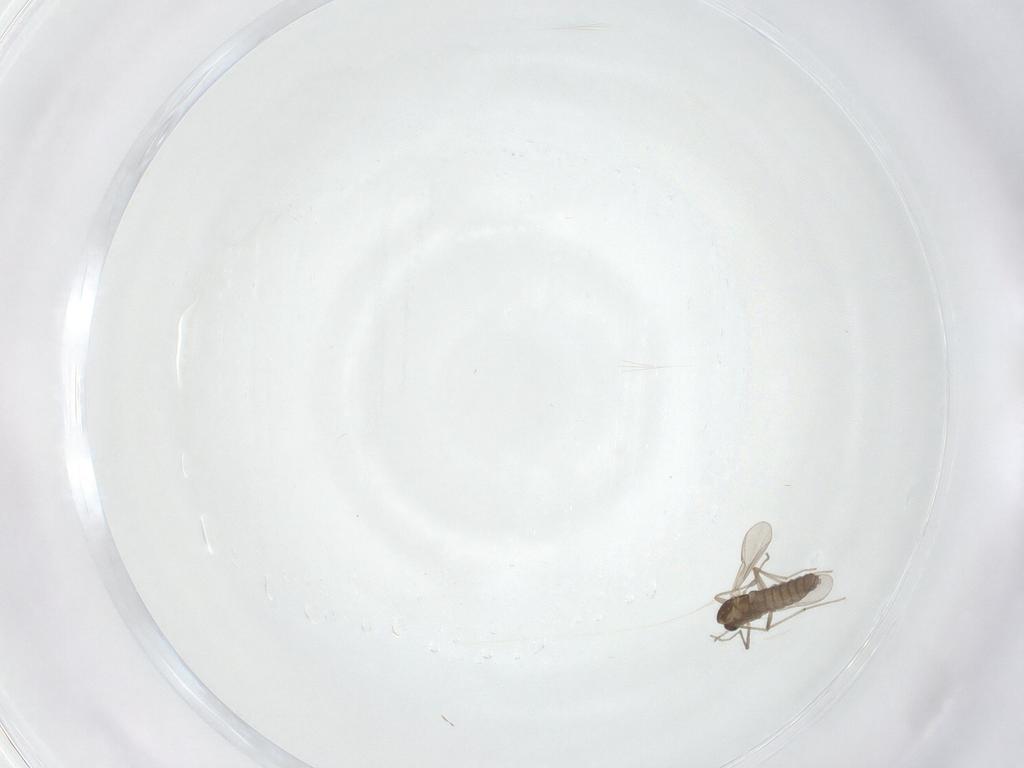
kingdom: Animalia
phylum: Arthropoda
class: Insecta
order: Diptera
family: Chironomidae
